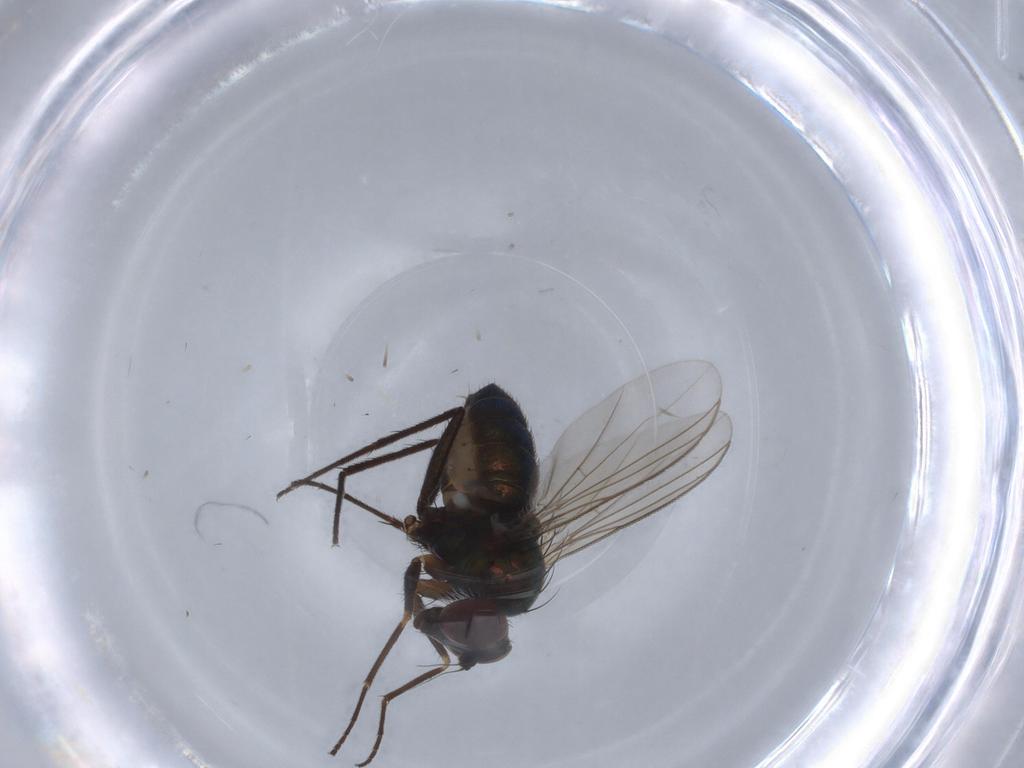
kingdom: Animalia
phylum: Arthropoda
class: Insecta
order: Diptera
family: Dolichopodidae
